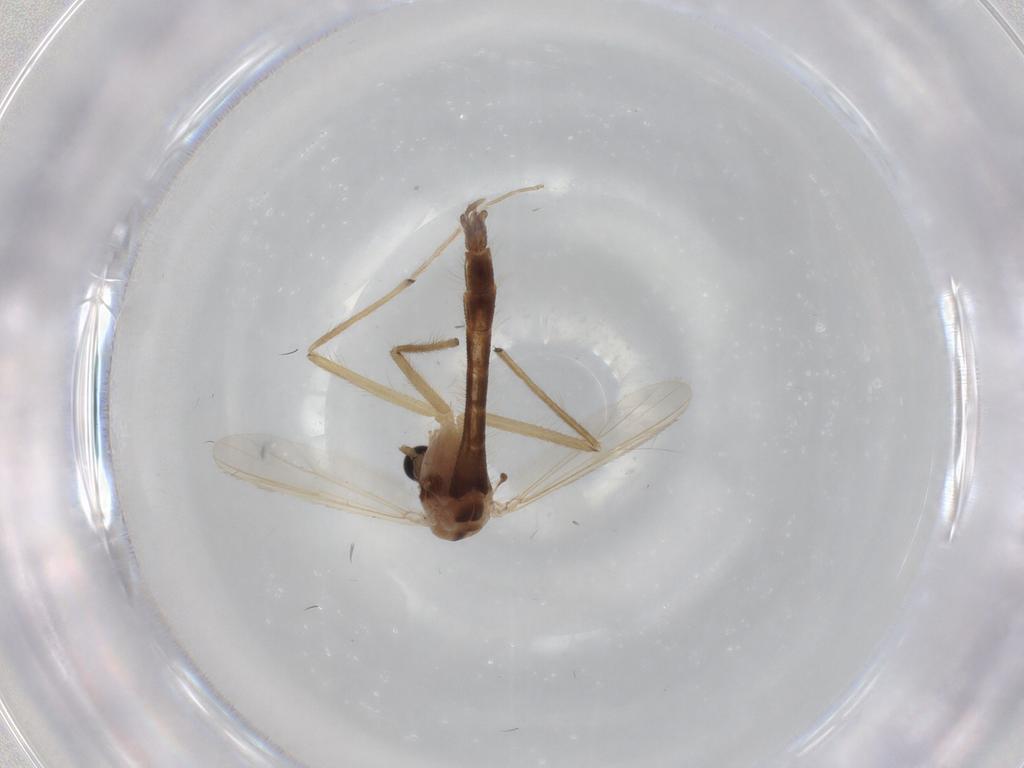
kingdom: Animalia
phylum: Arthropoda
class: Insecta
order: Diptera
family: Chironomidae
